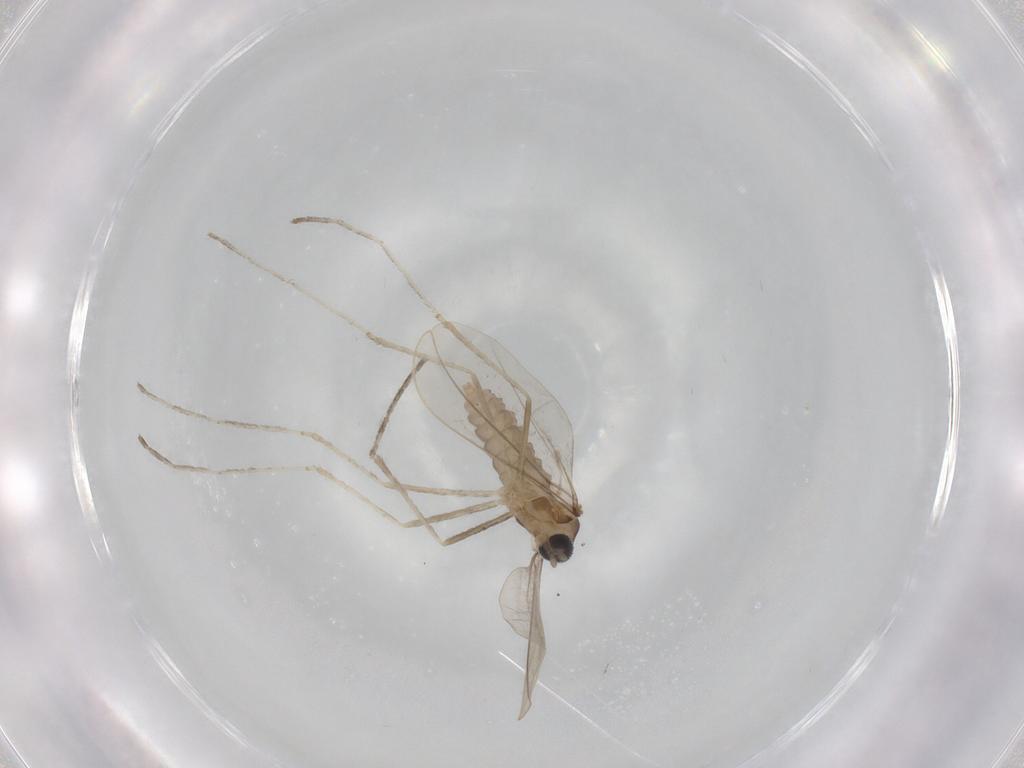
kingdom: Animalia
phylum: Arthropoda
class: Insecta
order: Diptera
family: Cecidomyiidae
